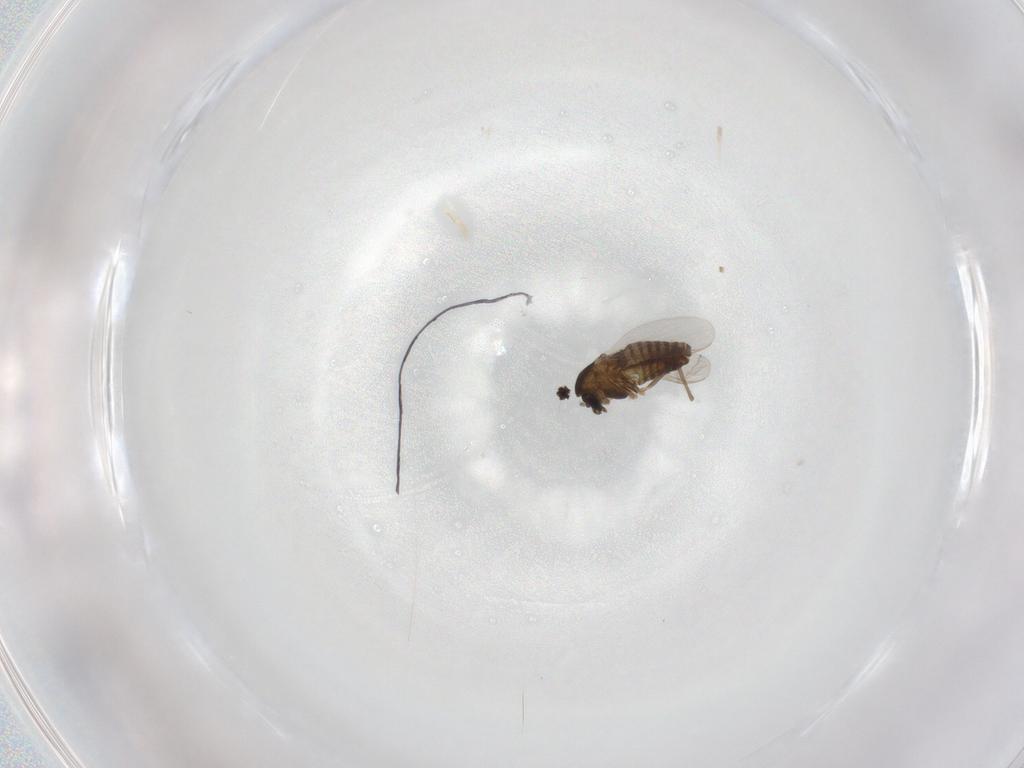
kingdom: Animalia
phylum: Arthropoda
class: Insecta
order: Diptera
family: Chironomidae
